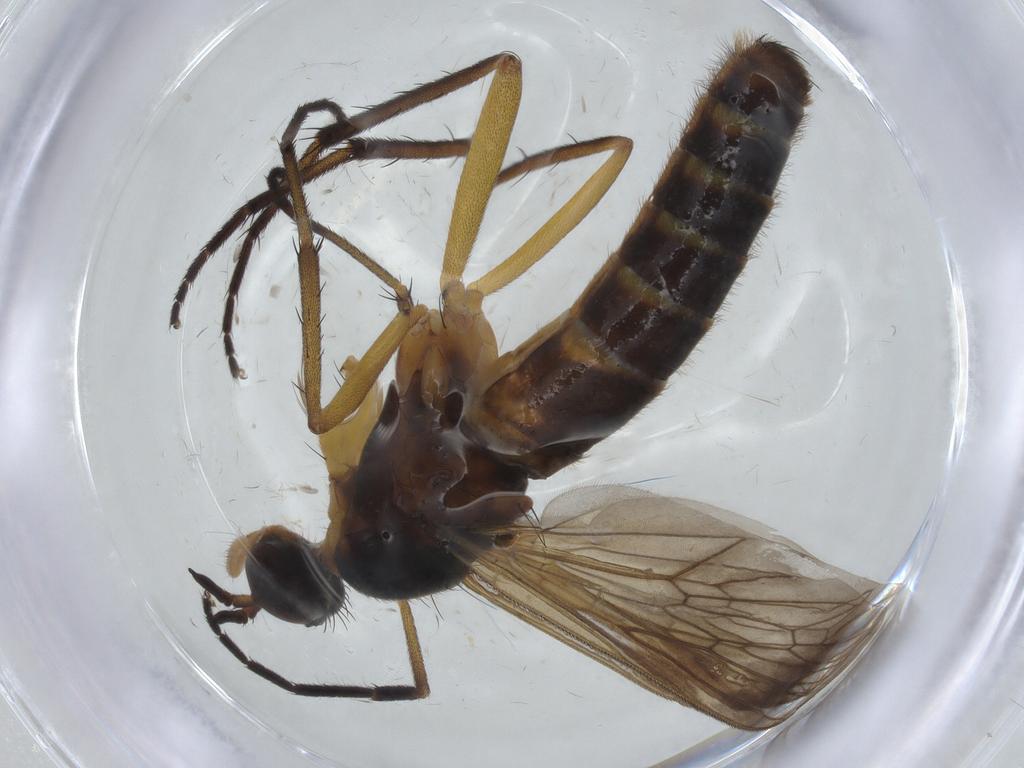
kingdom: Animalia
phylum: Arthropoda
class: Insecta
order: Diptera
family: Therevidae
